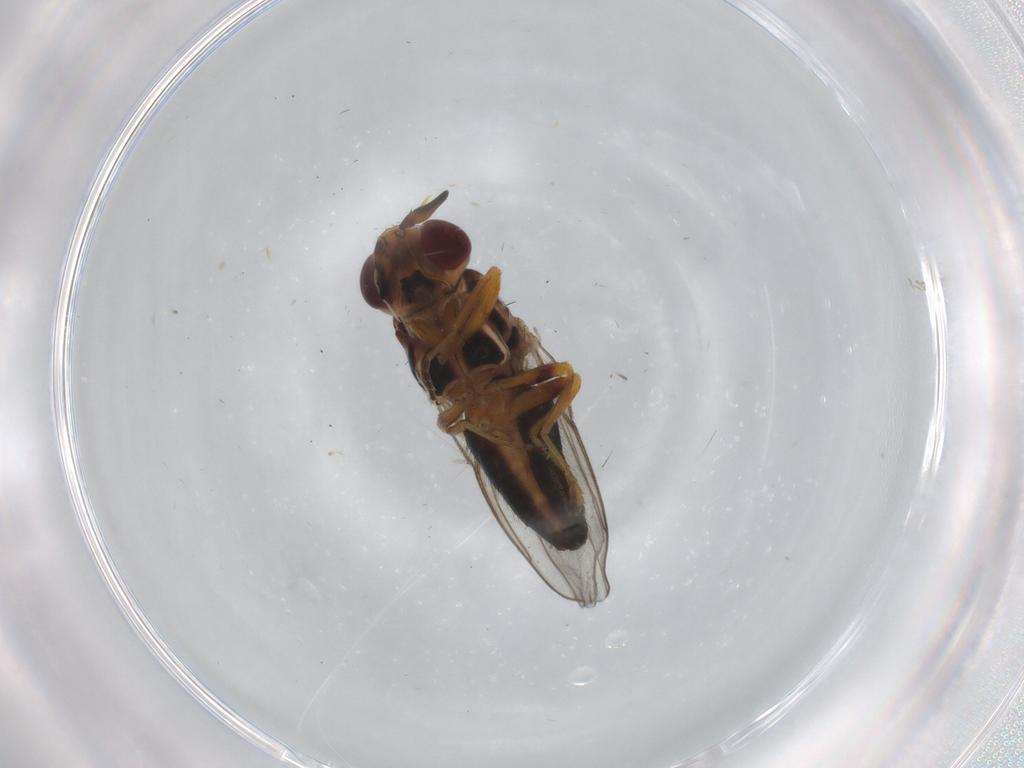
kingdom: Animalia
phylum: Arthropoda
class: Insecta
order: Diptera
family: Chloropidae
